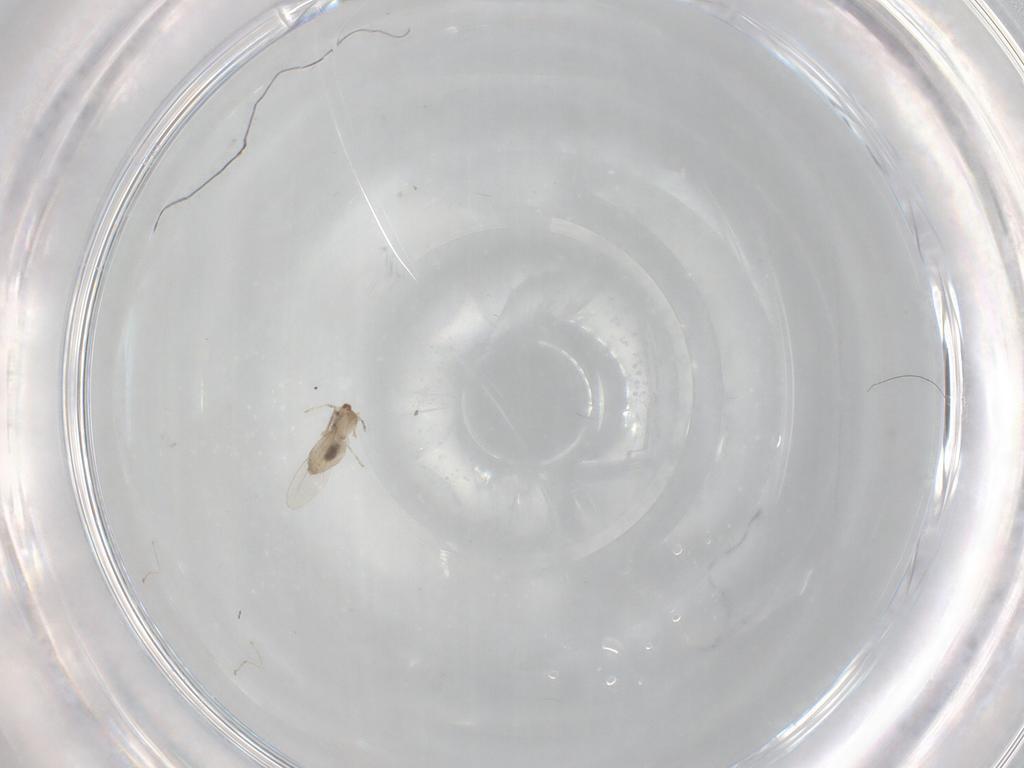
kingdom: Animalia
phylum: Arthropoda
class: Insecta
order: Diptera
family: Cecidomyiidae
